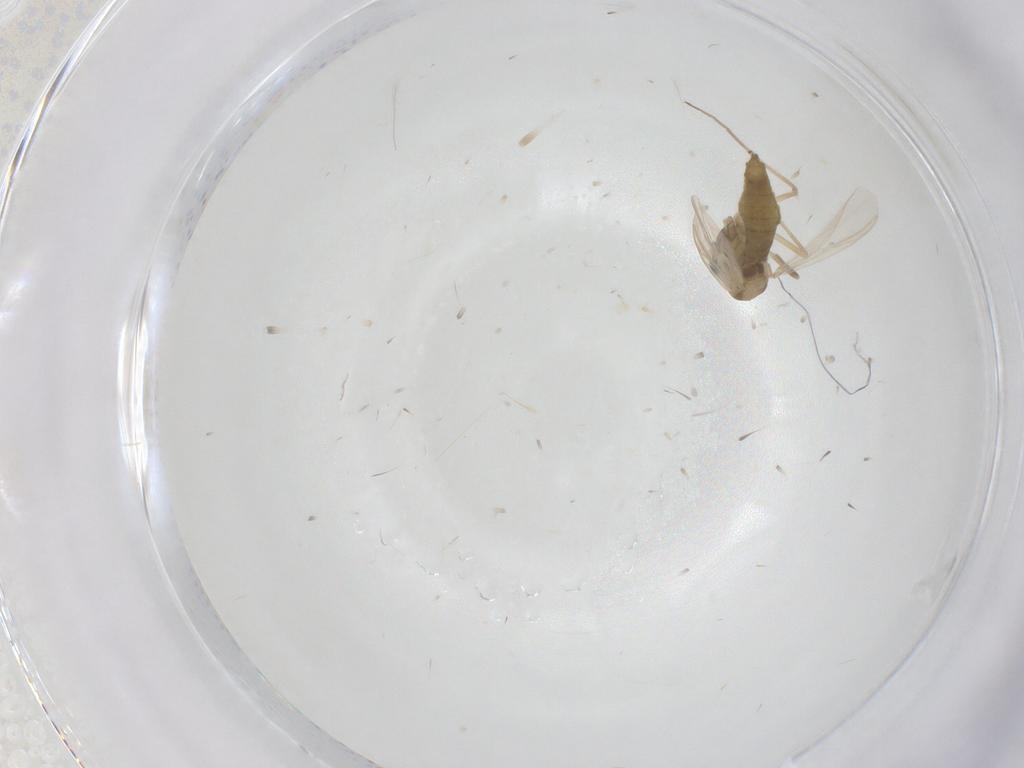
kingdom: Animalia
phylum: Arthropoda
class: Insecta
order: Diptera
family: Chironomidae
